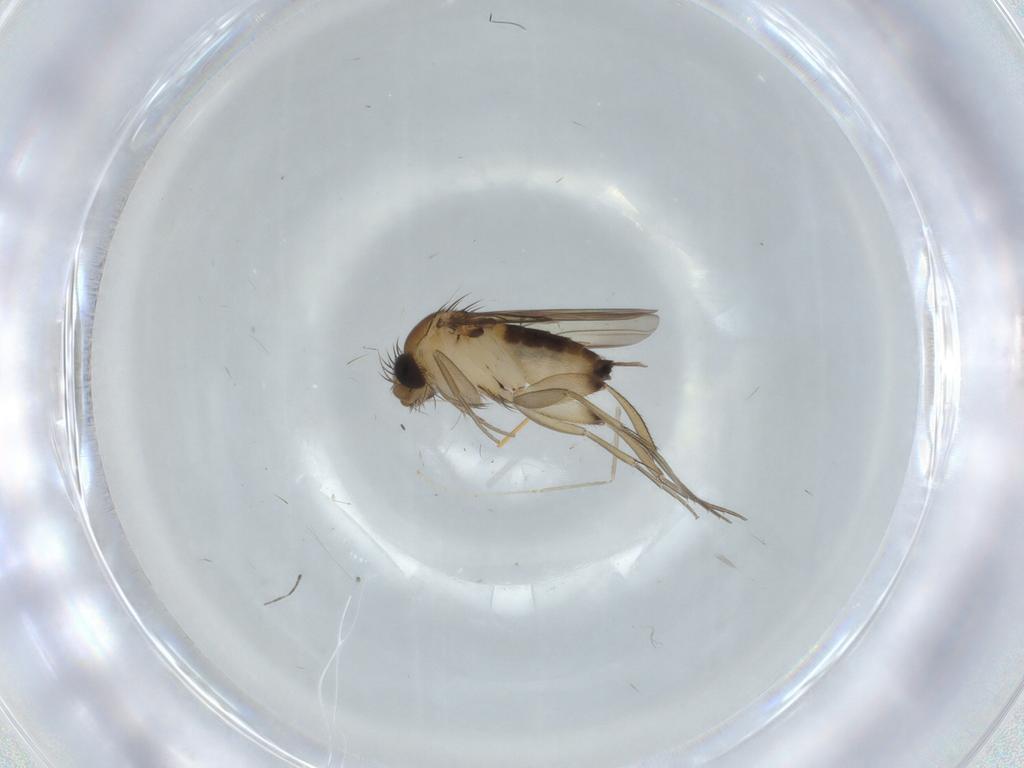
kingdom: Animalia
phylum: Arthropoda
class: Insecta
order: Diptera
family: Phoridae
